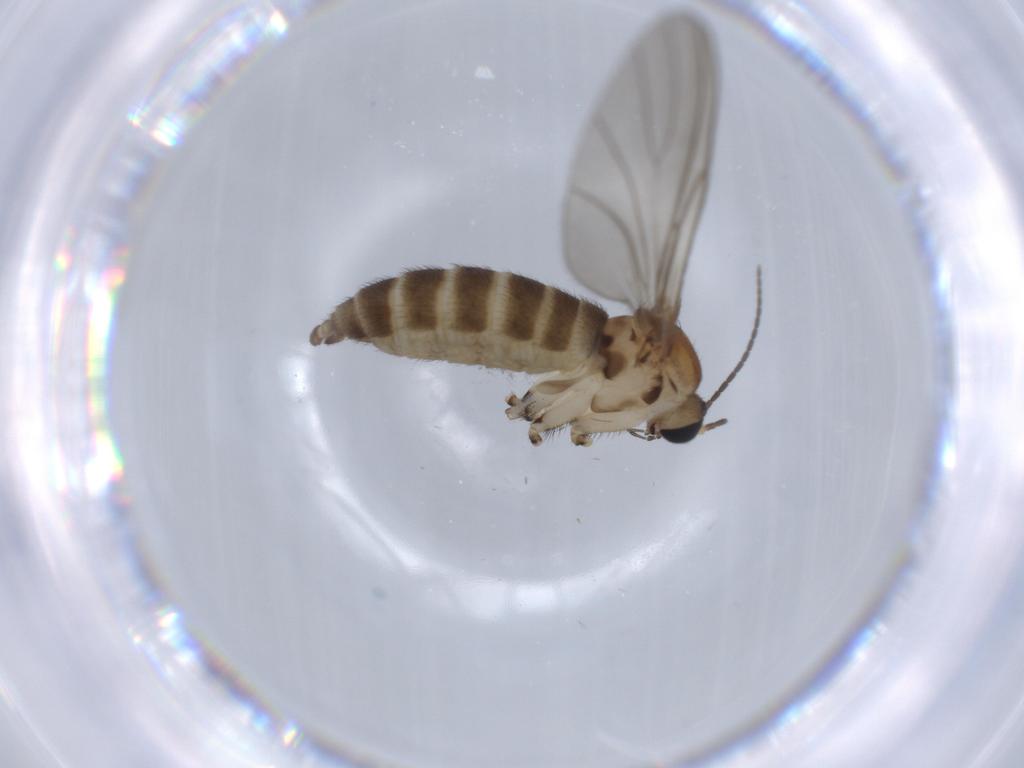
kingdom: Animalia
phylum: Arthropoda
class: Insecta
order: Diptera
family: Sciaridae
